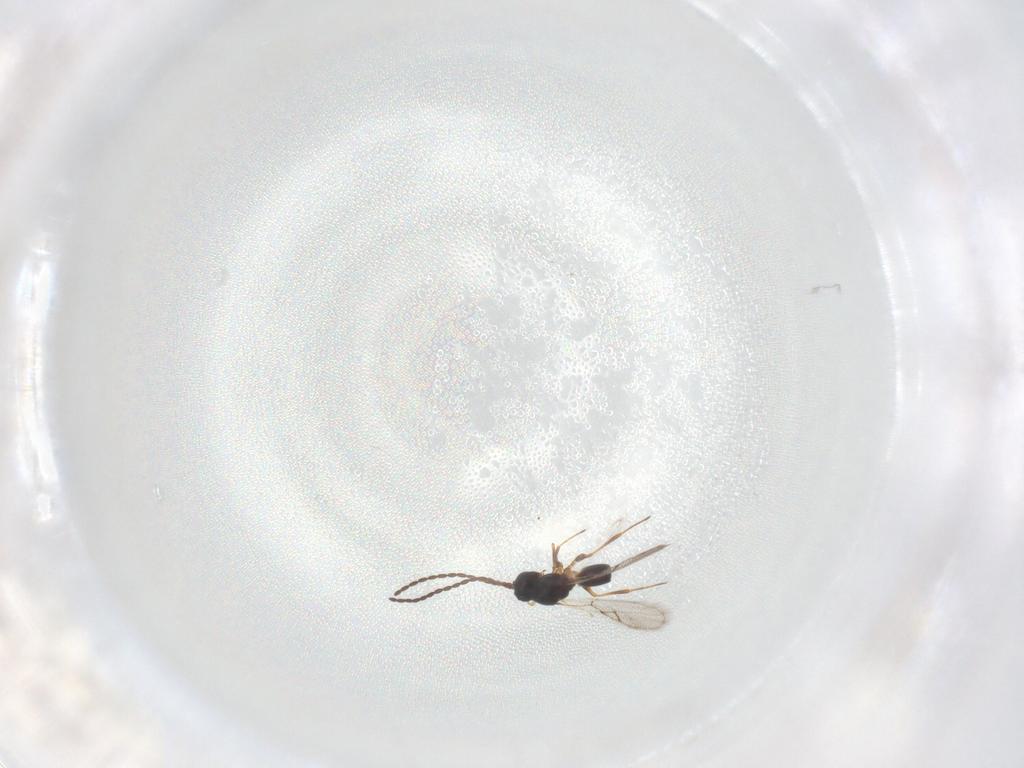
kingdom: Animalia
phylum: Arthropoda
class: Insecta
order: Hymenoptera
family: Figitidae
